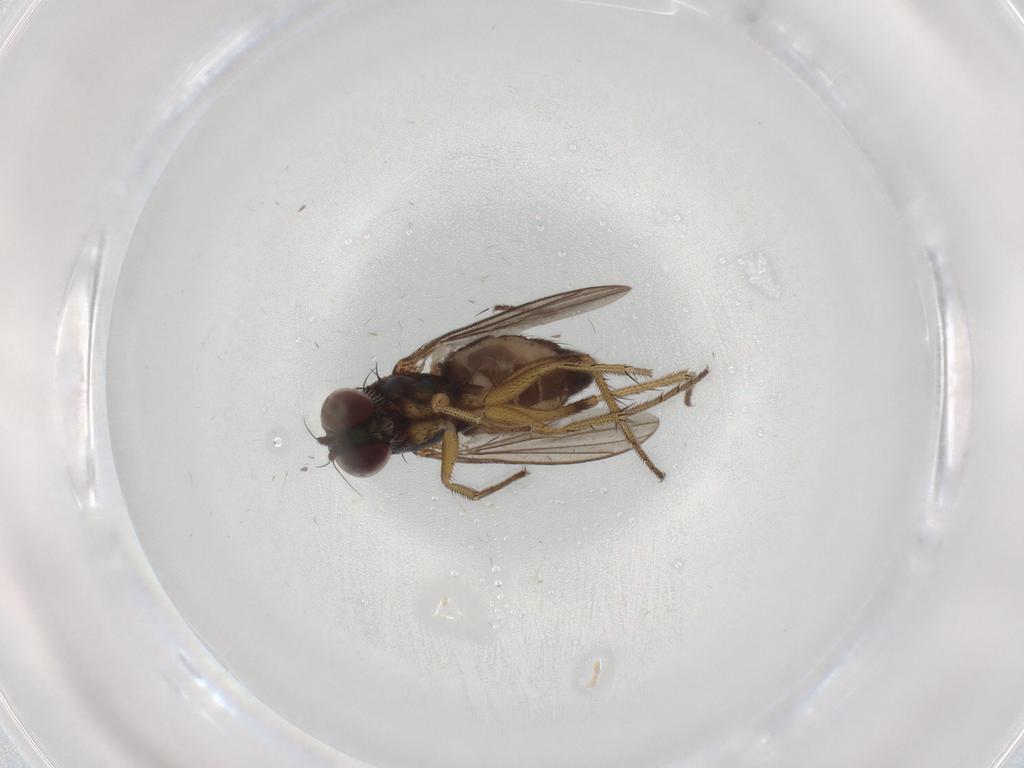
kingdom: Animalia
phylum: Arthropoda
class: Insecta
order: Diptera
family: Dolichopodidae
